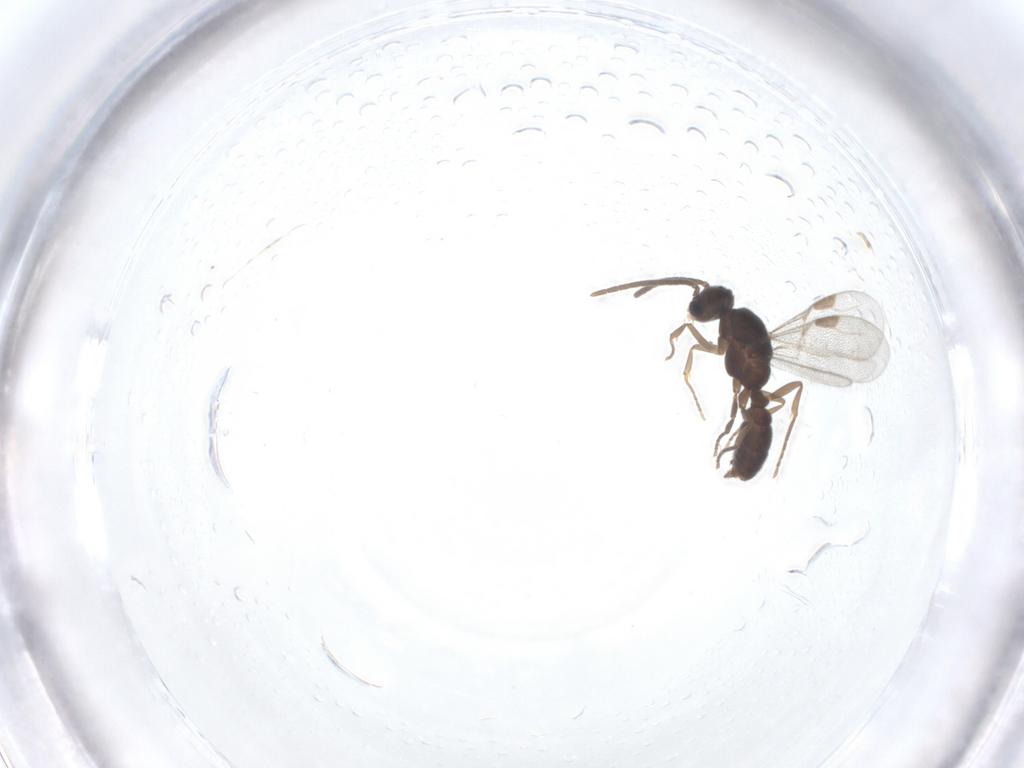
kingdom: Animalia
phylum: Arthropoda
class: Insecta
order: Hymenoptera
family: Formicidae
